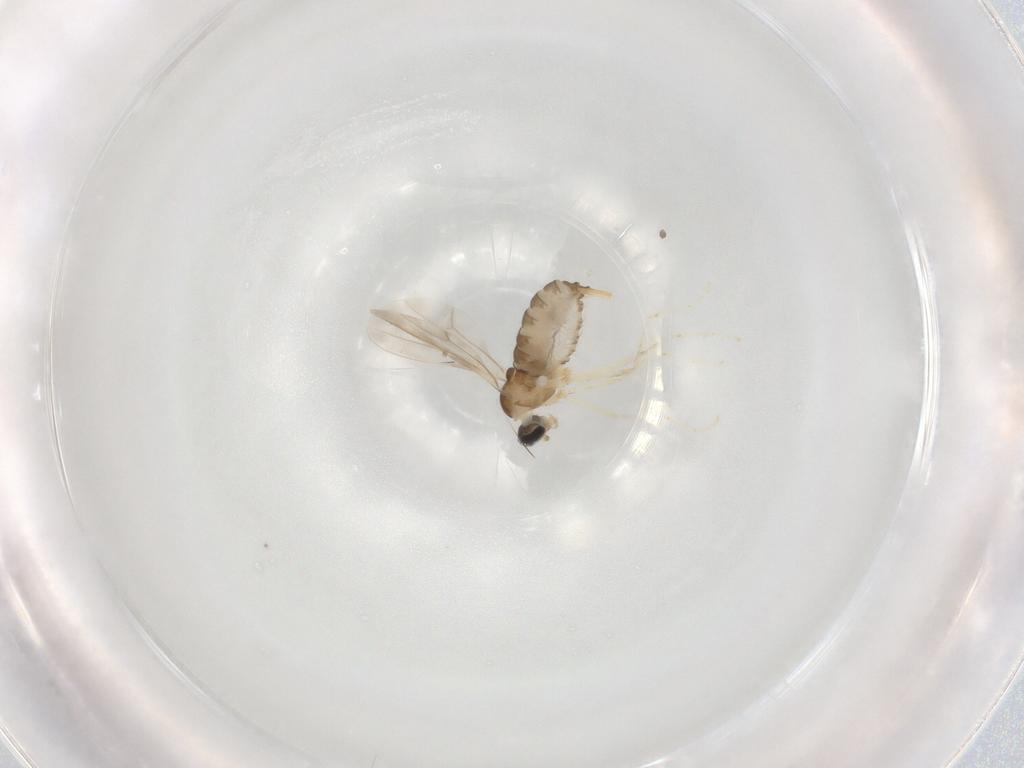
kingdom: Animalia
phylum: Arthropoda
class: Insecta
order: Diptera
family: Cecidomyiidae
